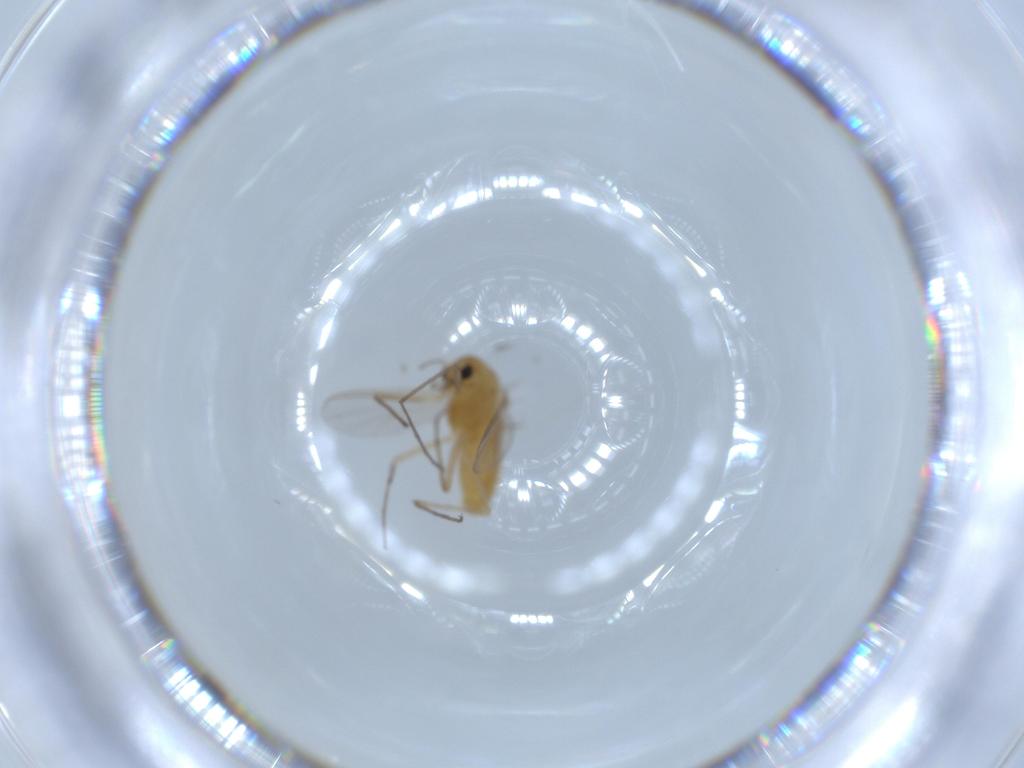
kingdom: Animalia
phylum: Arthropoda
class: Insecta
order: Diptera
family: Chironomidae
